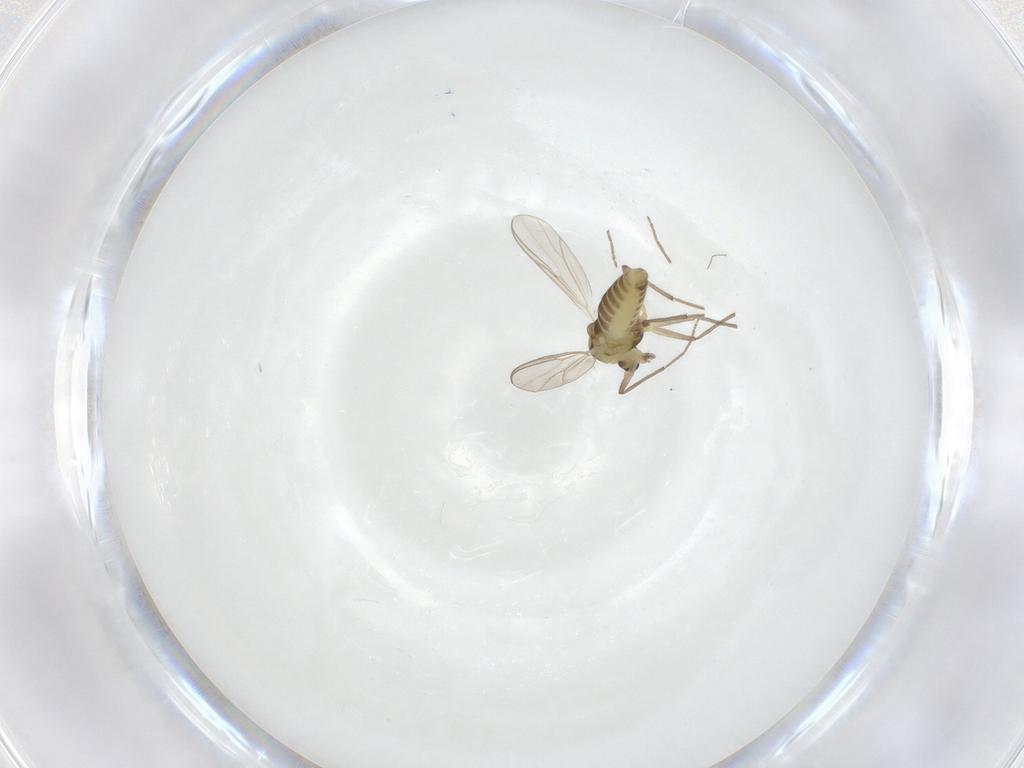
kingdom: Animalia
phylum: Arthropoda
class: Insecta
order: Diptera
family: Chironomidae
